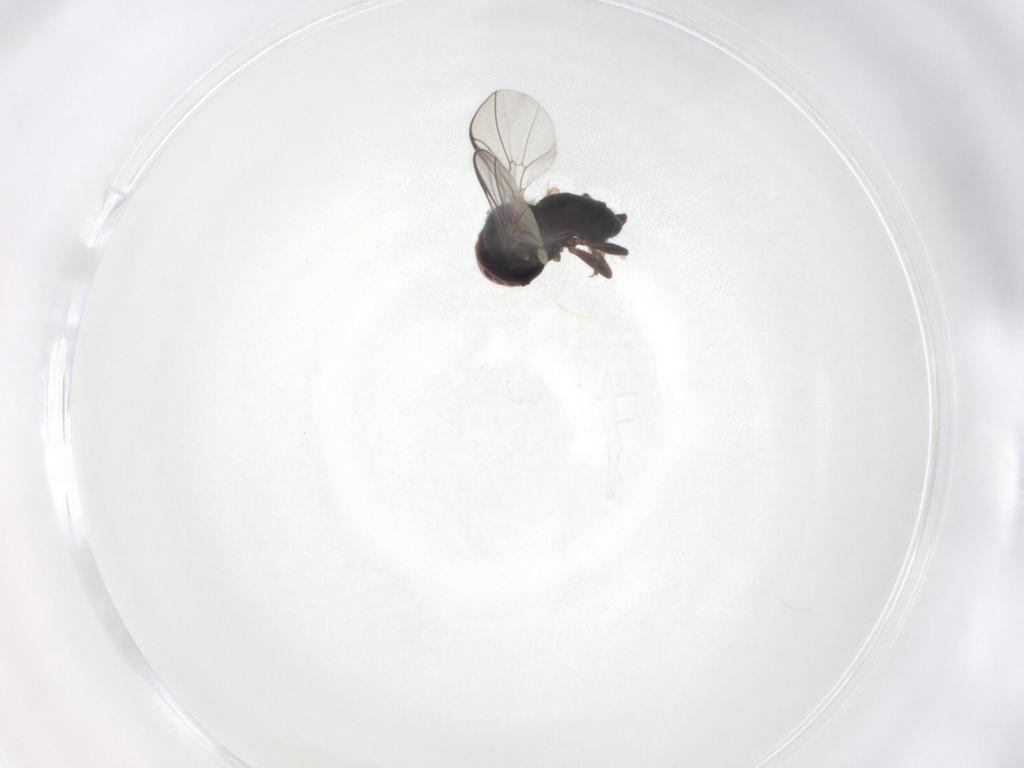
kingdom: Animalia
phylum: Arthropoda
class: Insecta
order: Diptera
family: Pipunculidae
